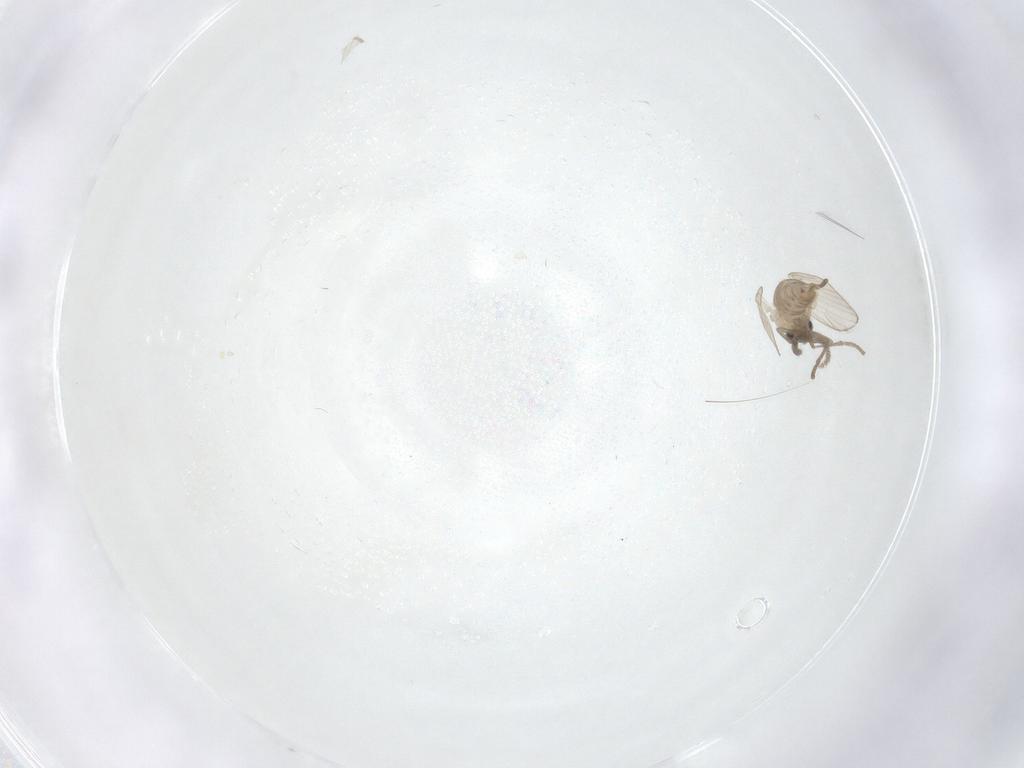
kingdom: Animalia
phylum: Arthropoda
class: Insecta
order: Diptera
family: Psychodidae
